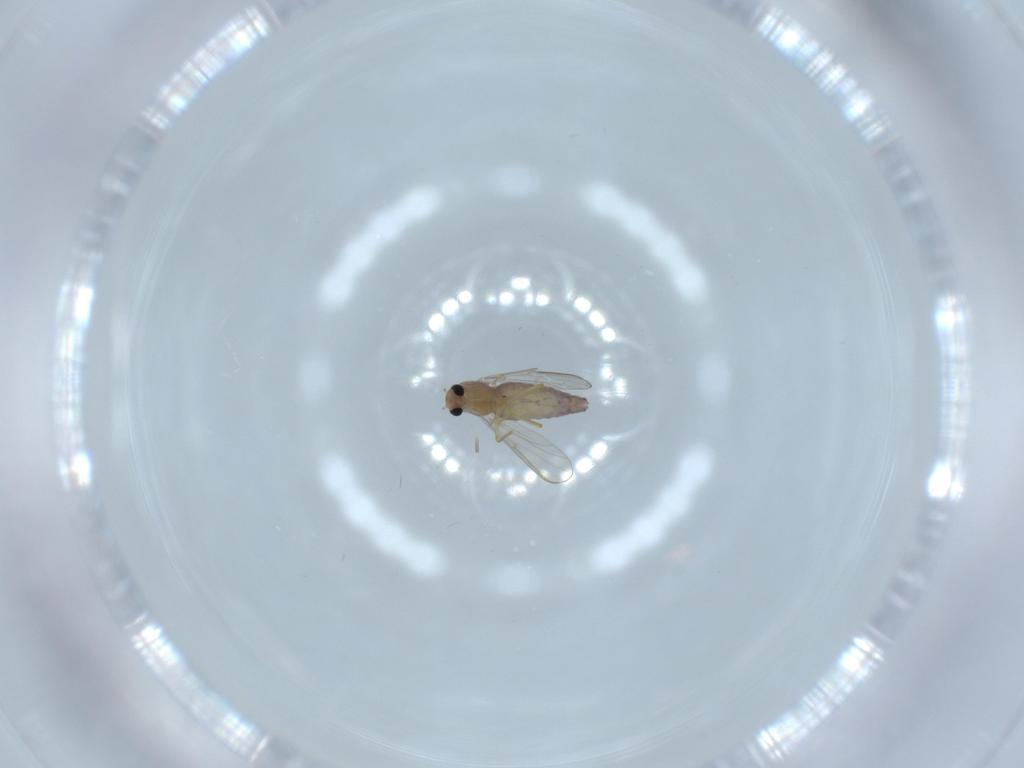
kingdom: Animalia
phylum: Arthropoda
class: Insecta
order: Diptera
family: Chironomidae
